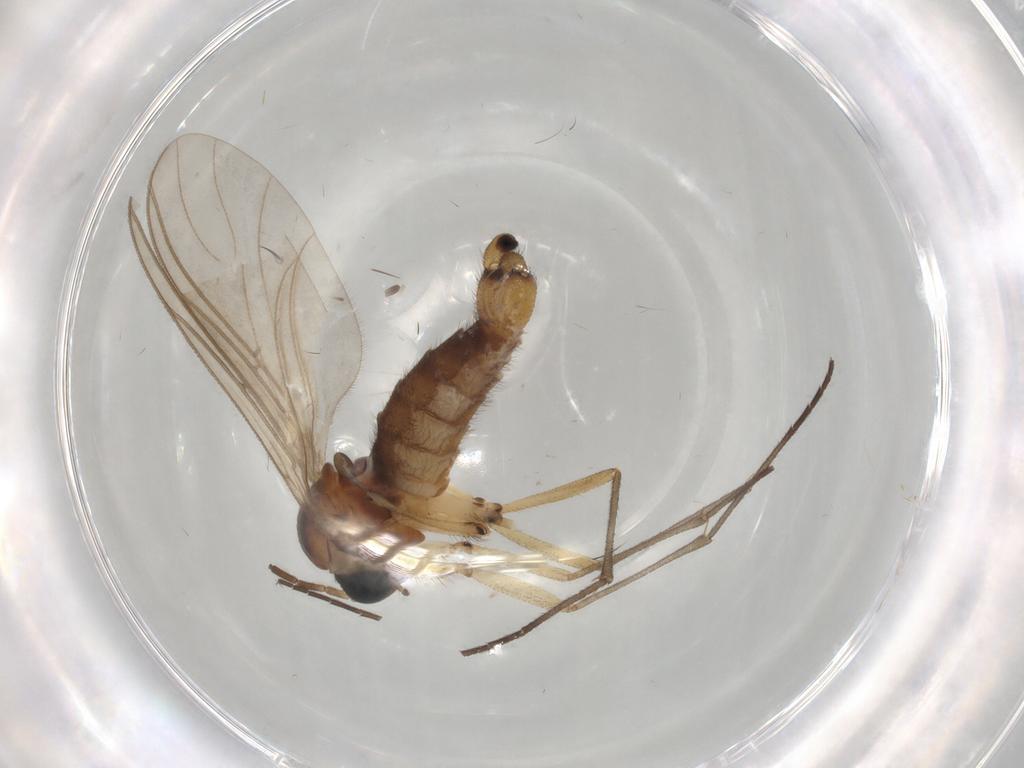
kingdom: Animalia
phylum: Arthropoda
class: Insecta
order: Diptera
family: Sciaridae
